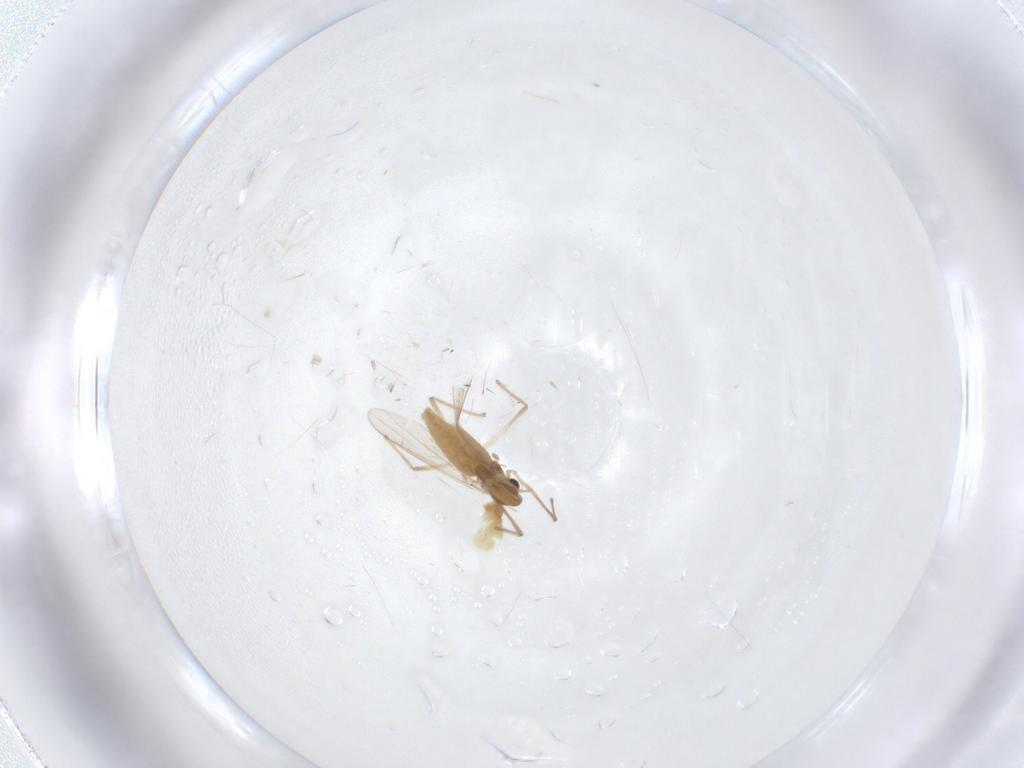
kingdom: Animalia
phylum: Arthropoda
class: Insecta
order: Diptera
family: Chironomidae
